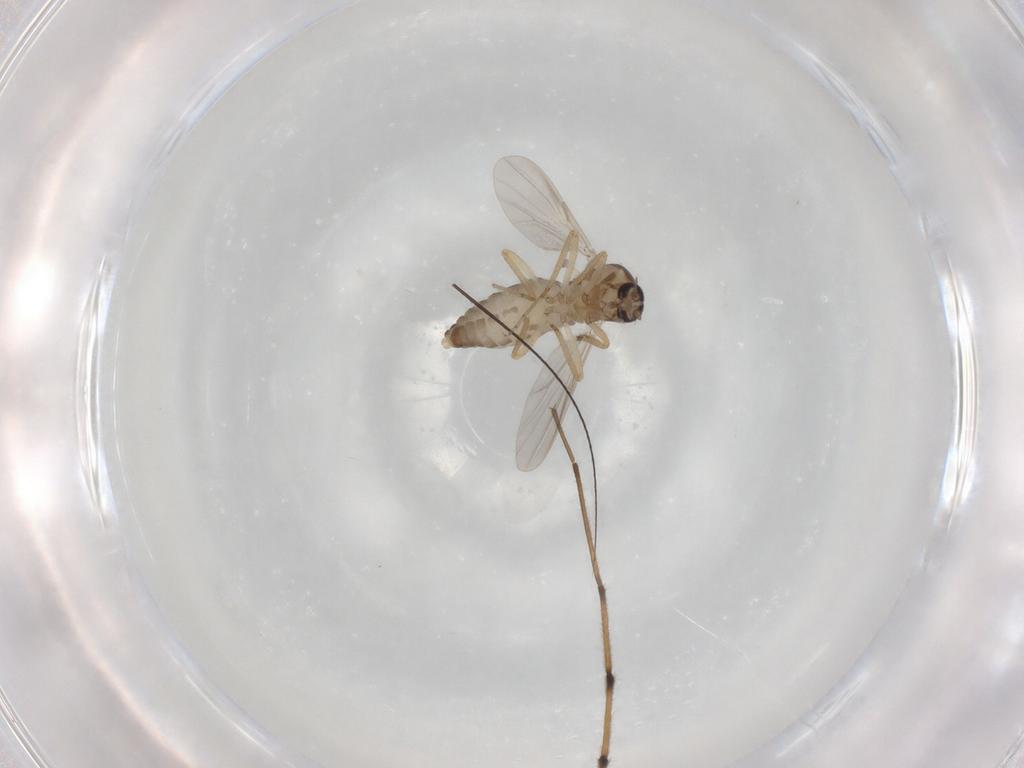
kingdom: Animalia
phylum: Arthropoda
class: Insecta
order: Diptera
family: Ceratopogonidae
